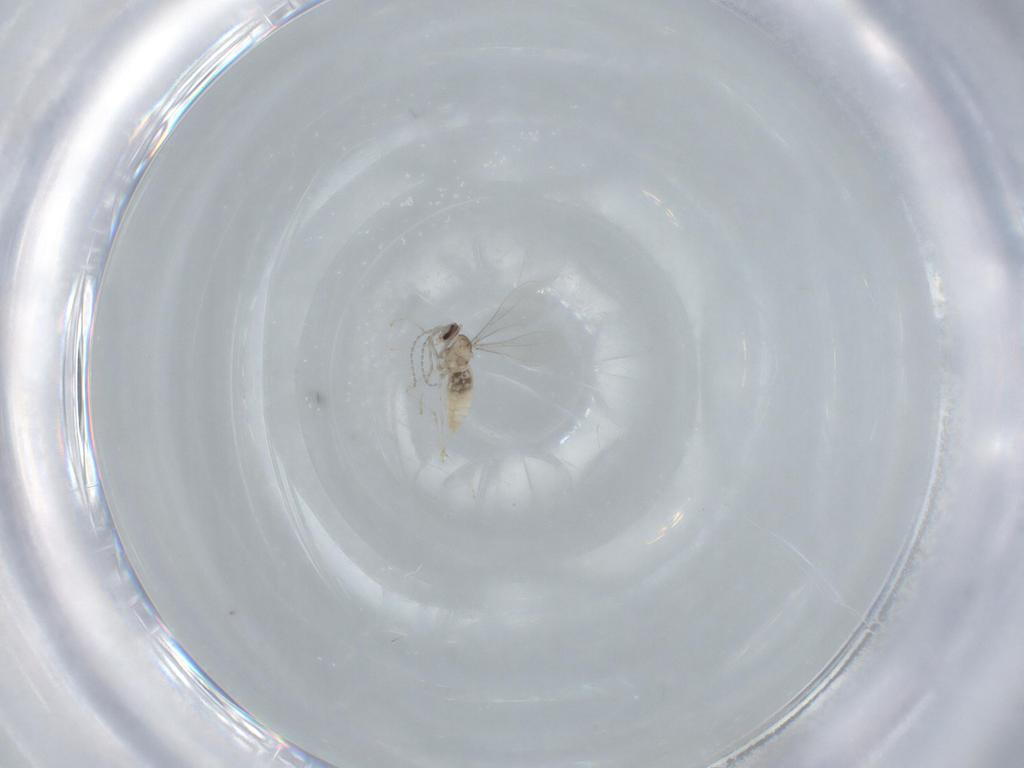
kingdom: Animalia
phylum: Arthropoda
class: Insecta
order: Diptera
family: Cecidomyiidae
